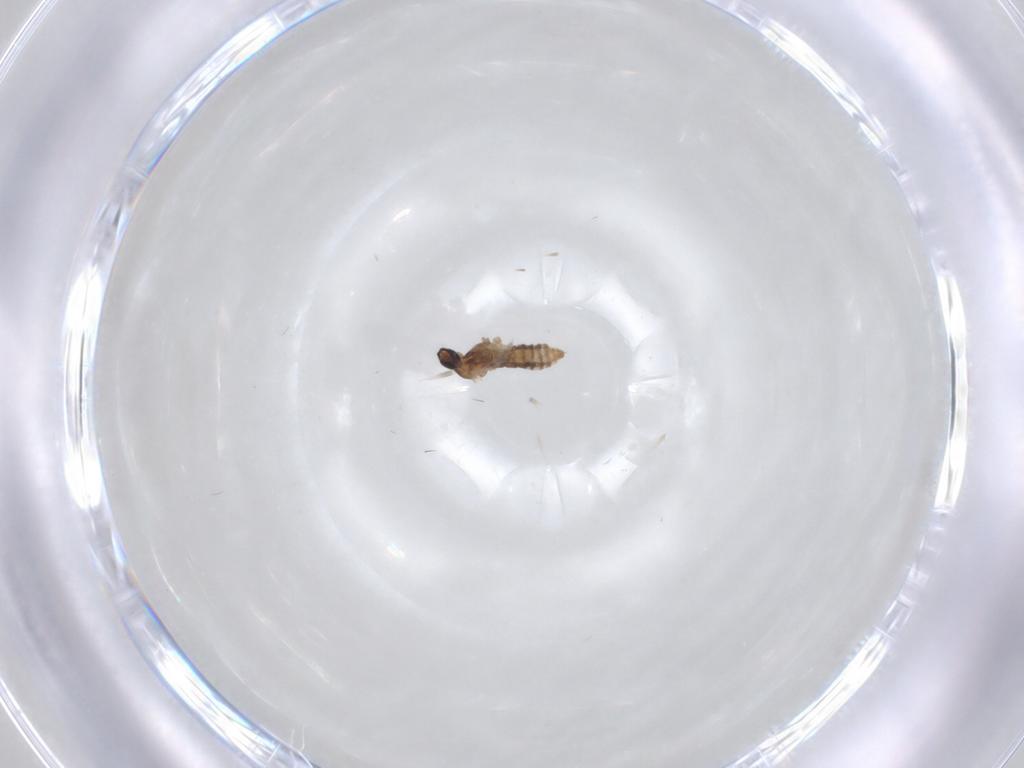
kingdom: Animalia
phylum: Arthropoda
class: Insecta
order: Diptera
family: Cecidomyiidae
